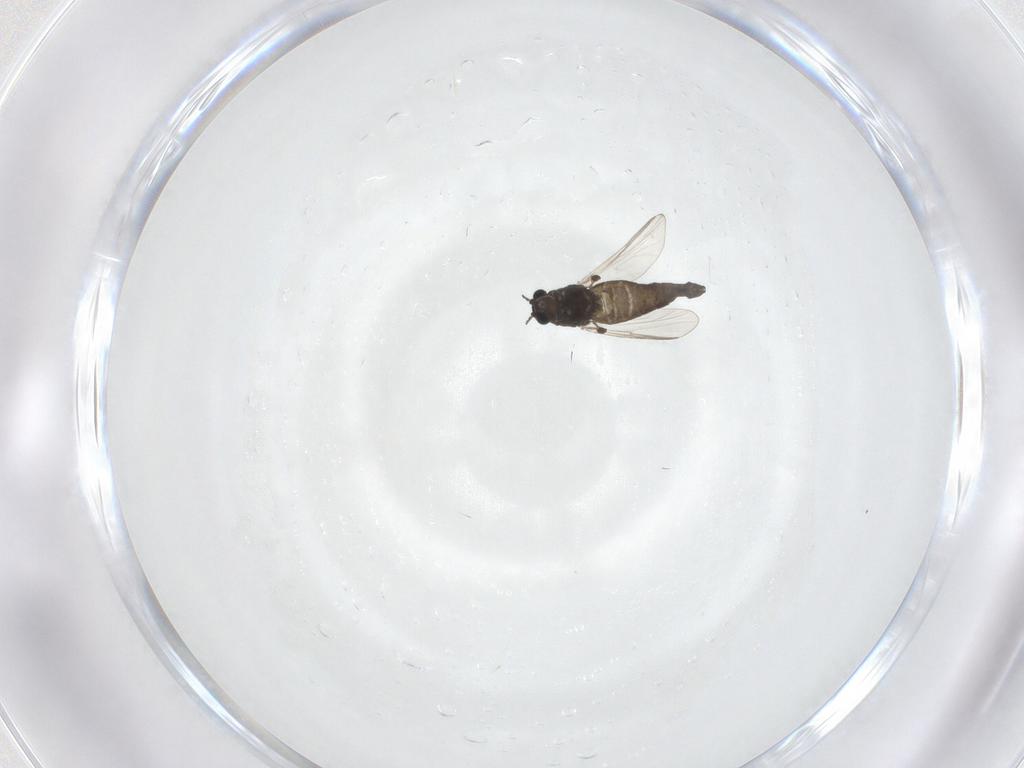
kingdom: Animalia
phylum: Arthropoda
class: Insecta
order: Diptera
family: Chironomidae
